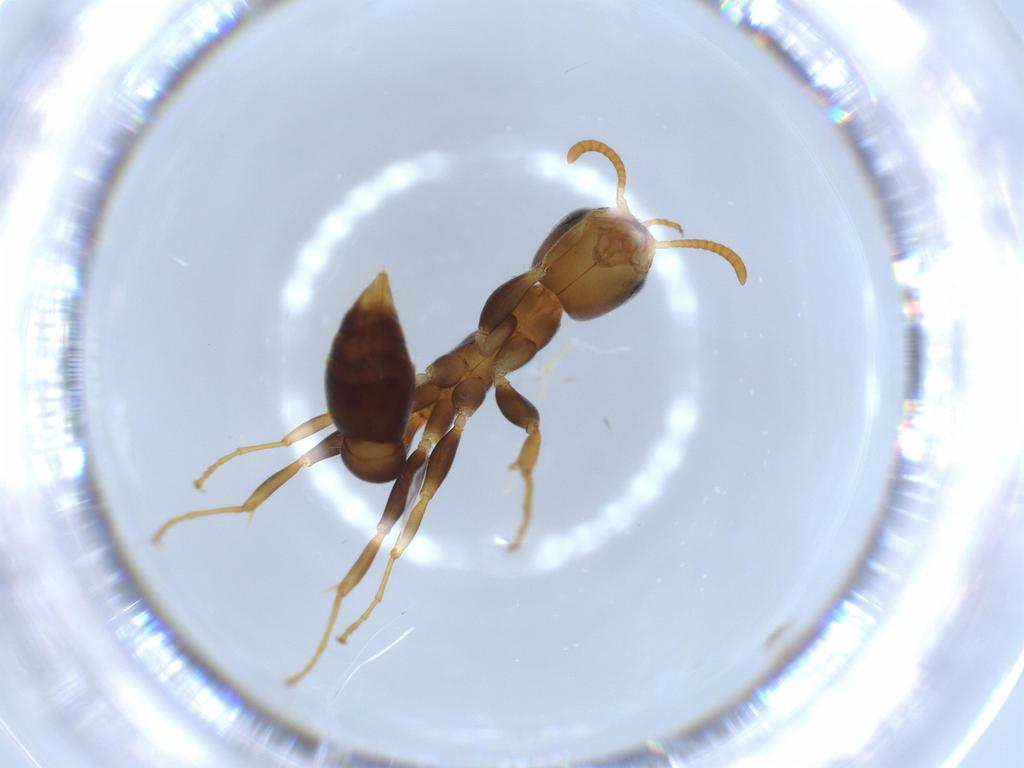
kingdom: Animalia
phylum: Arthropoda
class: Insecta
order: Hymenoptera
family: Formicidae
